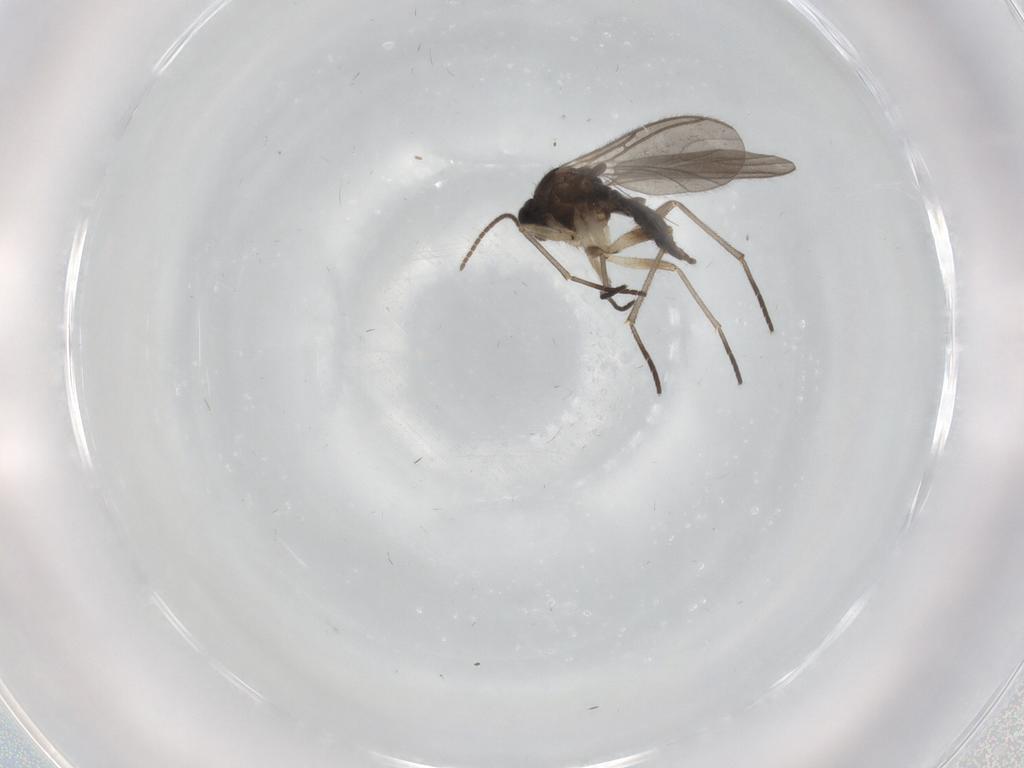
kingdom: Animalia
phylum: Arthropoda
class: Insecta
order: Diptera
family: Sciaridae
